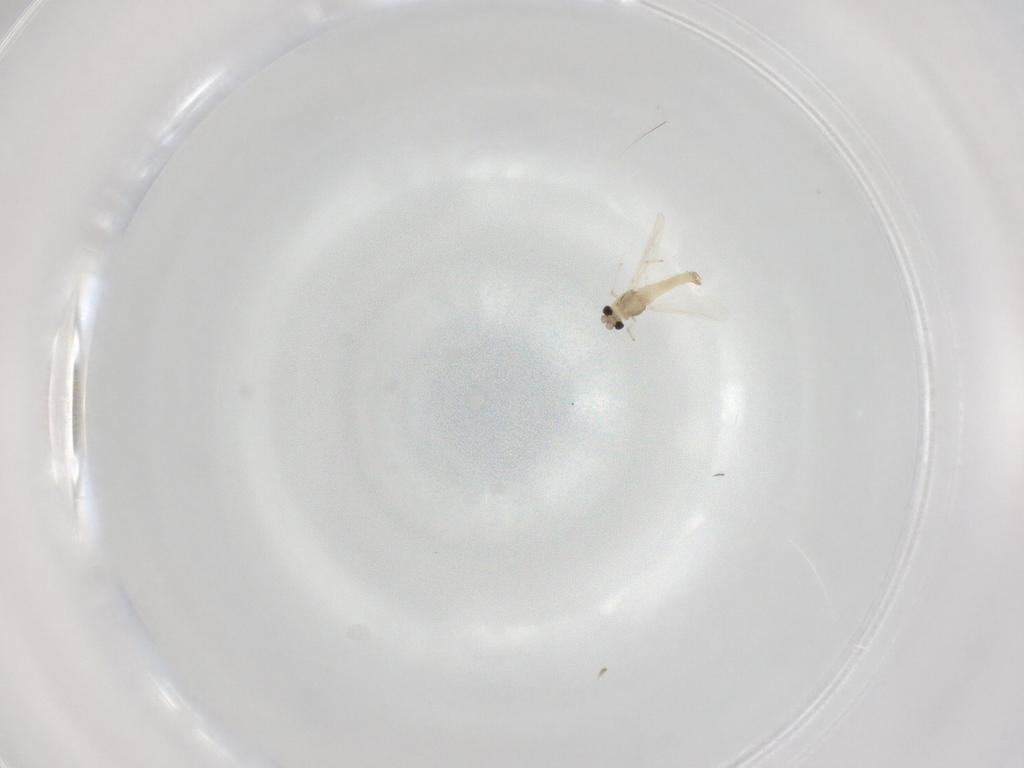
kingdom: Animalia
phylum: Arthropoda
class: Insecta
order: Diptera
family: Chironomidae
